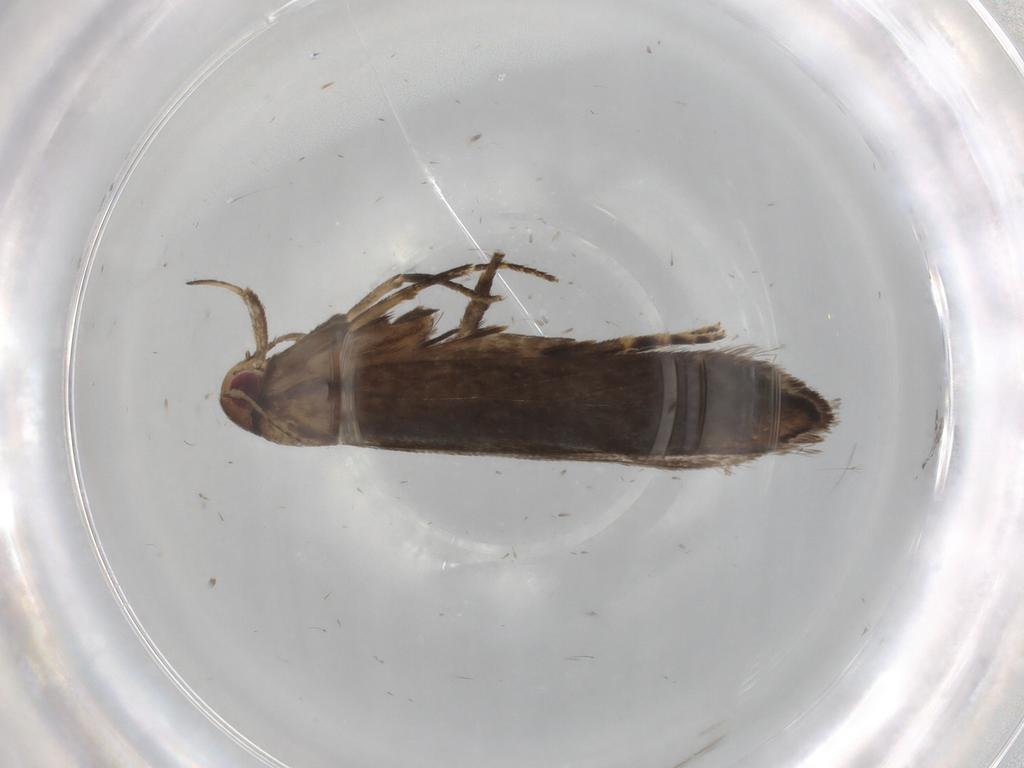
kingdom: Animalia
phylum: Arthropoda
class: Insecta
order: Lepidoptera
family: Gelechiidae
